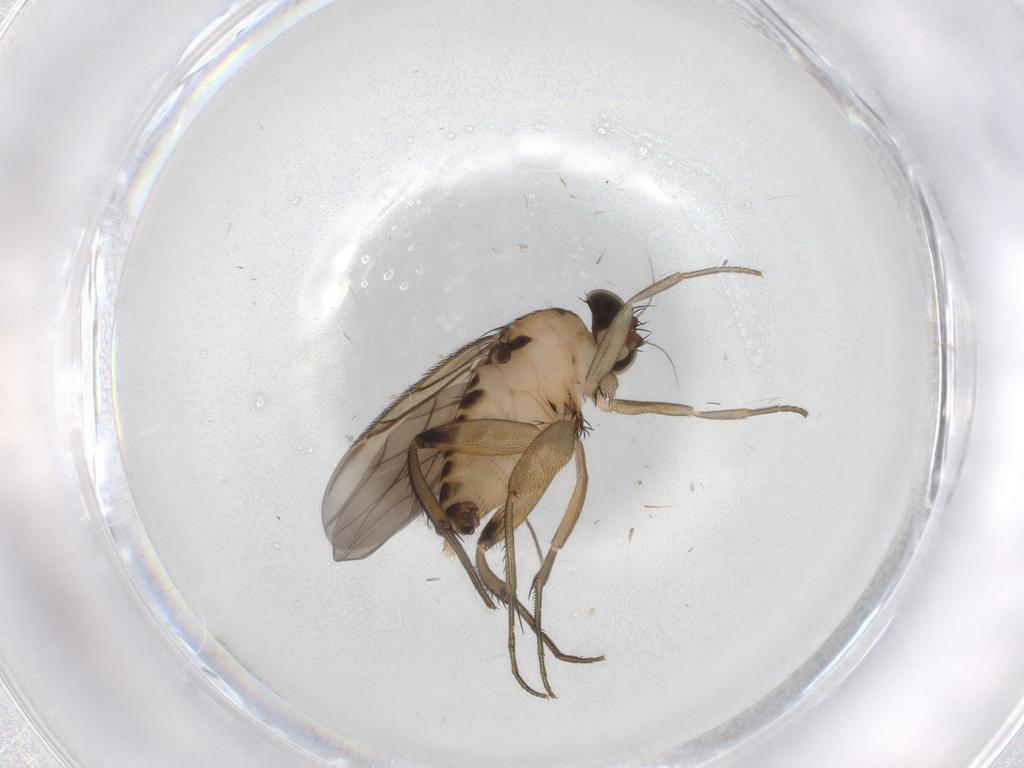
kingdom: Animalia
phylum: Arthropoda
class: Insecta
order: Diptera
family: Phoridae
